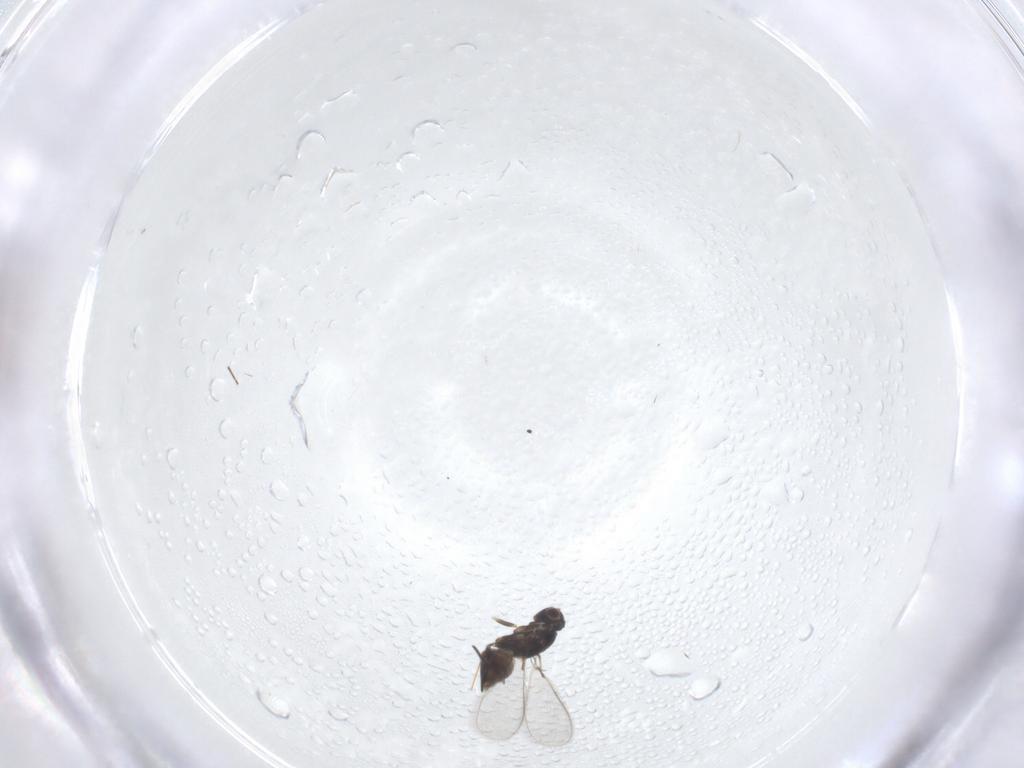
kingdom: Animalia
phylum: Arthropoda
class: Insecta
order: Hymenoptera
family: Mymaridae
